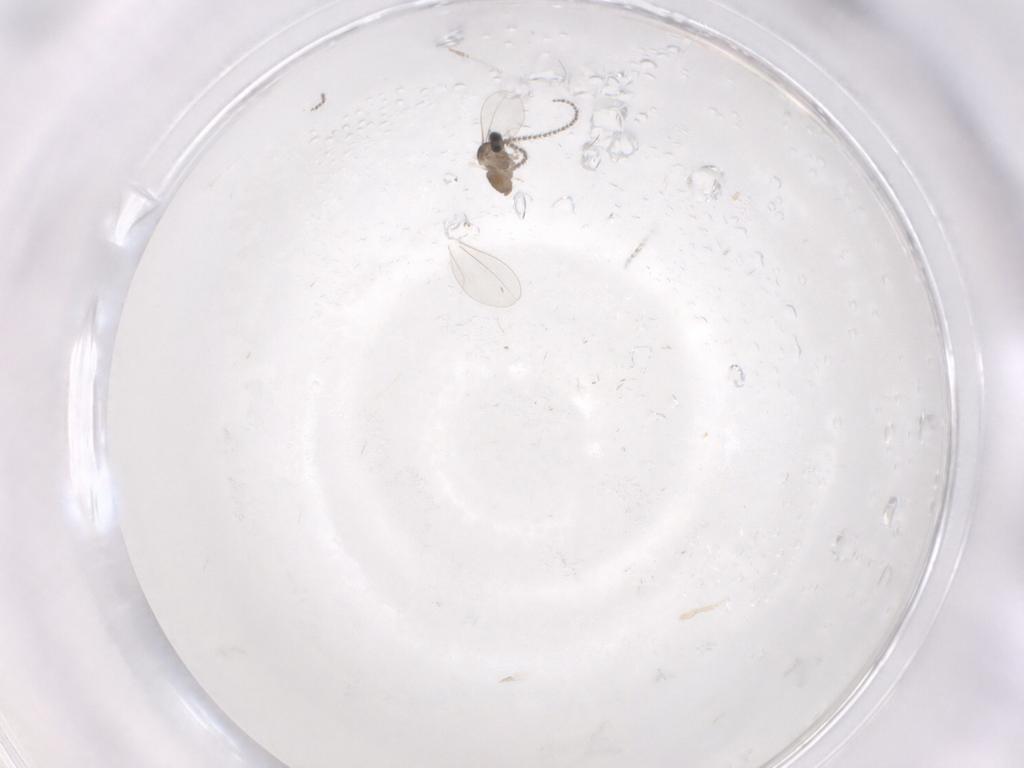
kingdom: Animalia
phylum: Arthropoda
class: Insecta
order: Diptera
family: Cecidomyiidae
